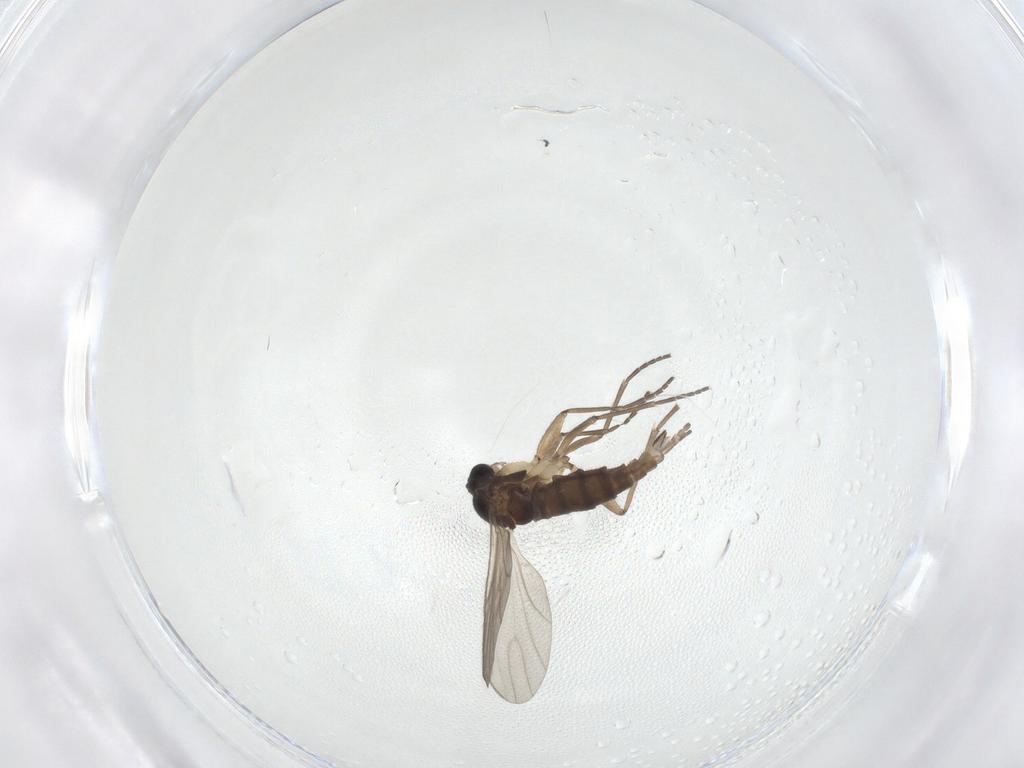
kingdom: Animalia
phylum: Arthropoda
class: Insecta
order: Diptera
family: Sciaridae
